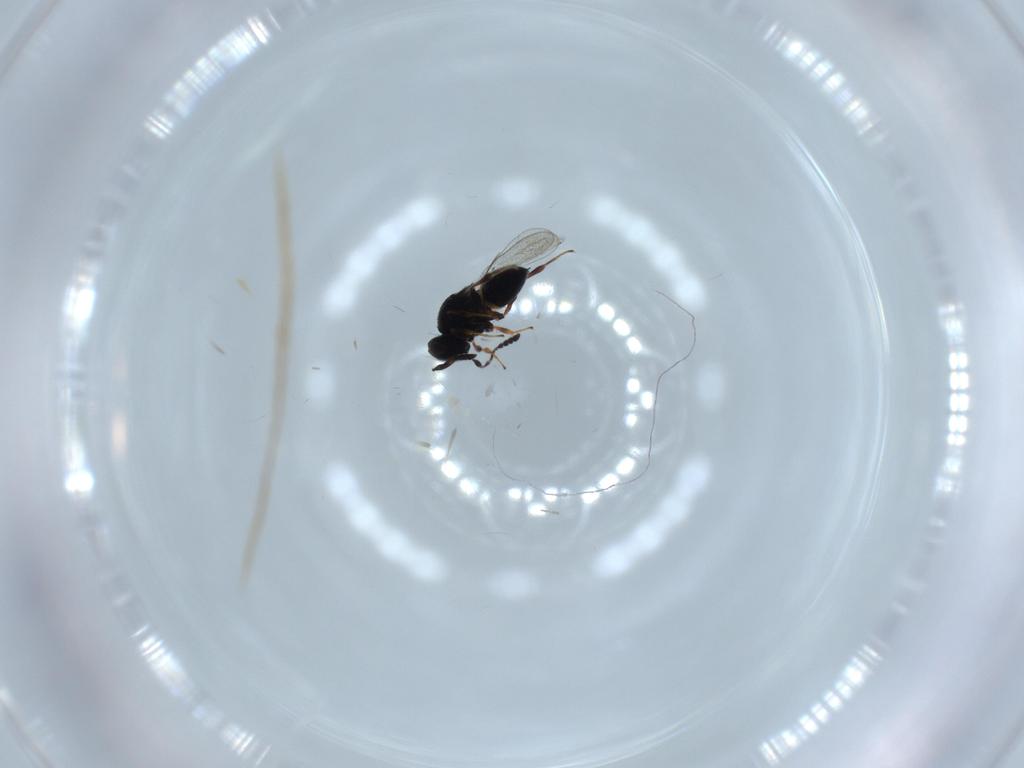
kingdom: Animalia
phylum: Arthropoda
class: Insecta
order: Hymenoptera
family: Platygastridae
